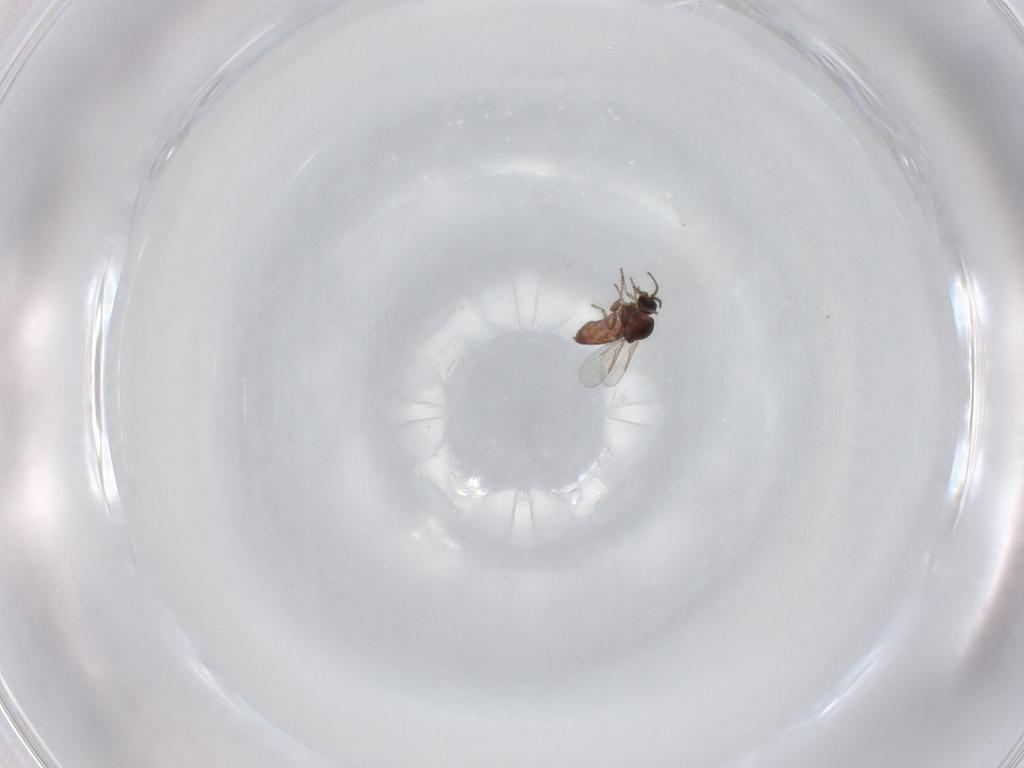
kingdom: Animalia
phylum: Arthropoda
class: Insecta
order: Diptera
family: Ceratopogonidae
